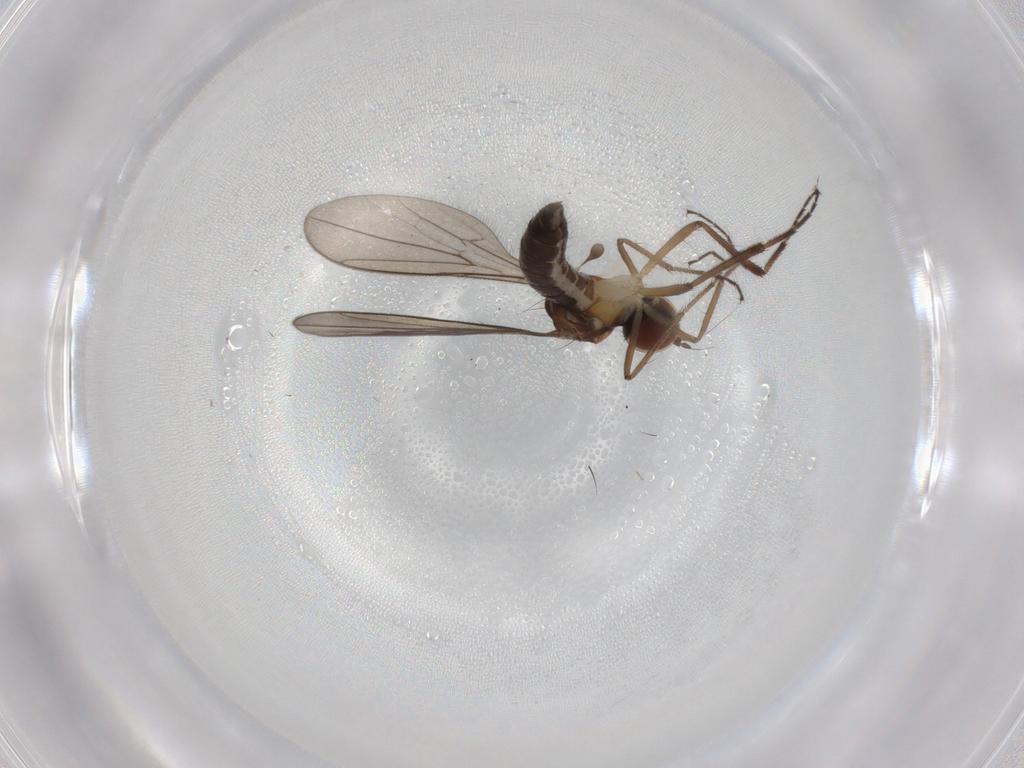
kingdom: Animalia
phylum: Arthropoda
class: Insecta
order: Diptera
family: Hybotidae
